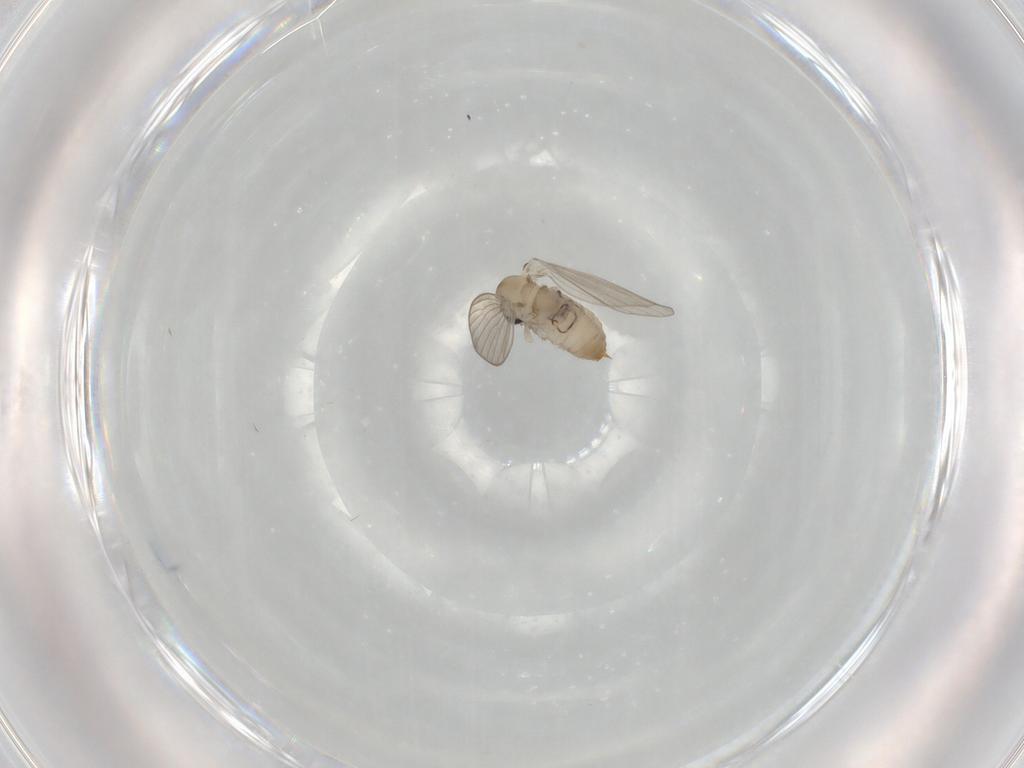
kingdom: Animalia
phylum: Arthropoda
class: Insecta
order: Diptera
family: Psychodidae
